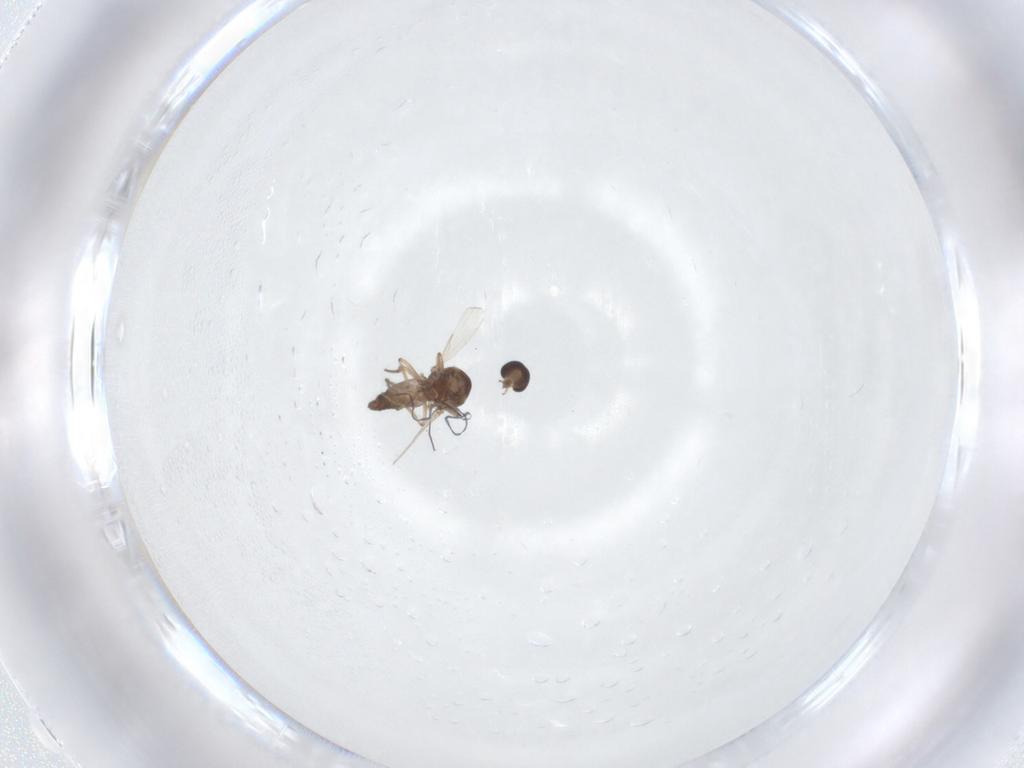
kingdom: Animalia
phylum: Arthropoda
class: Insecta
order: Diptera
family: Ceratopogonidae
